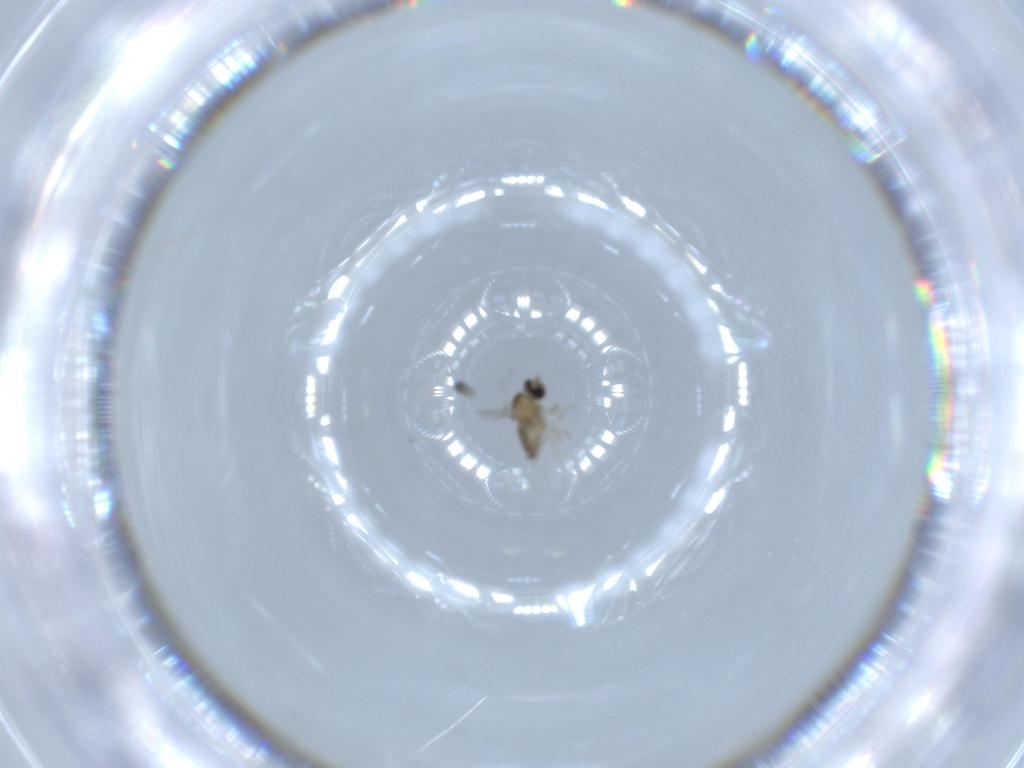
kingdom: Animalia
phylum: Arthropoda
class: Insecta
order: Diptera
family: Cecidomyiidae
